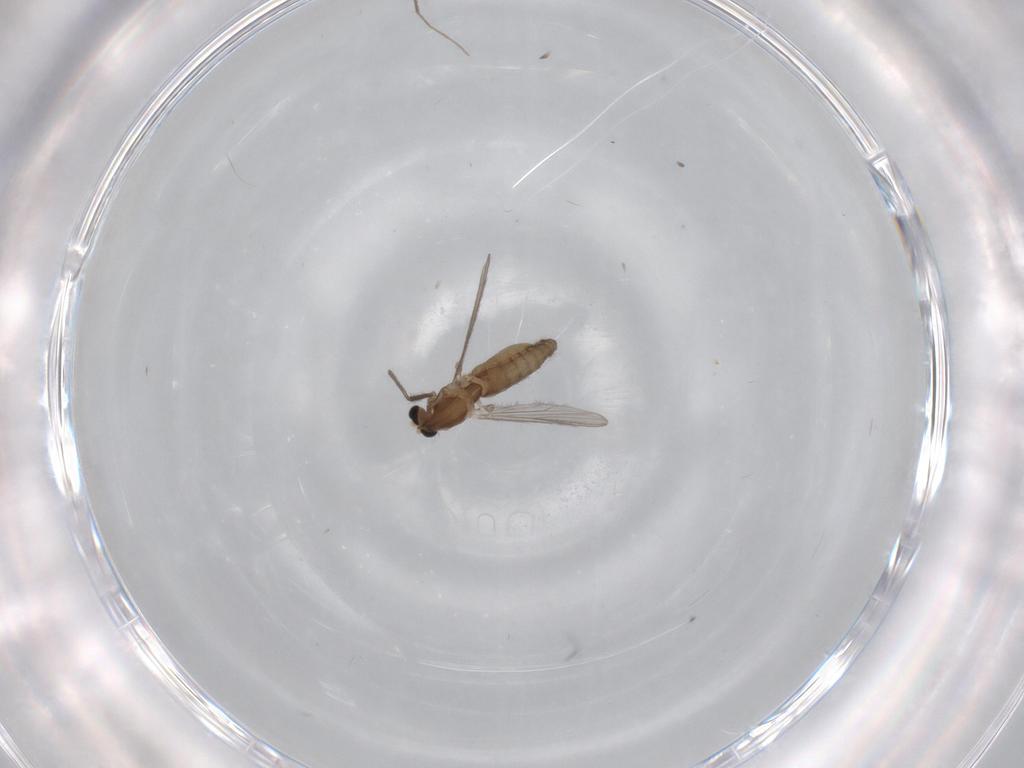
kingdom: Animalia
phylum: Arthropoda
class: Insecta
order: Diptera
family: Chironomidae
